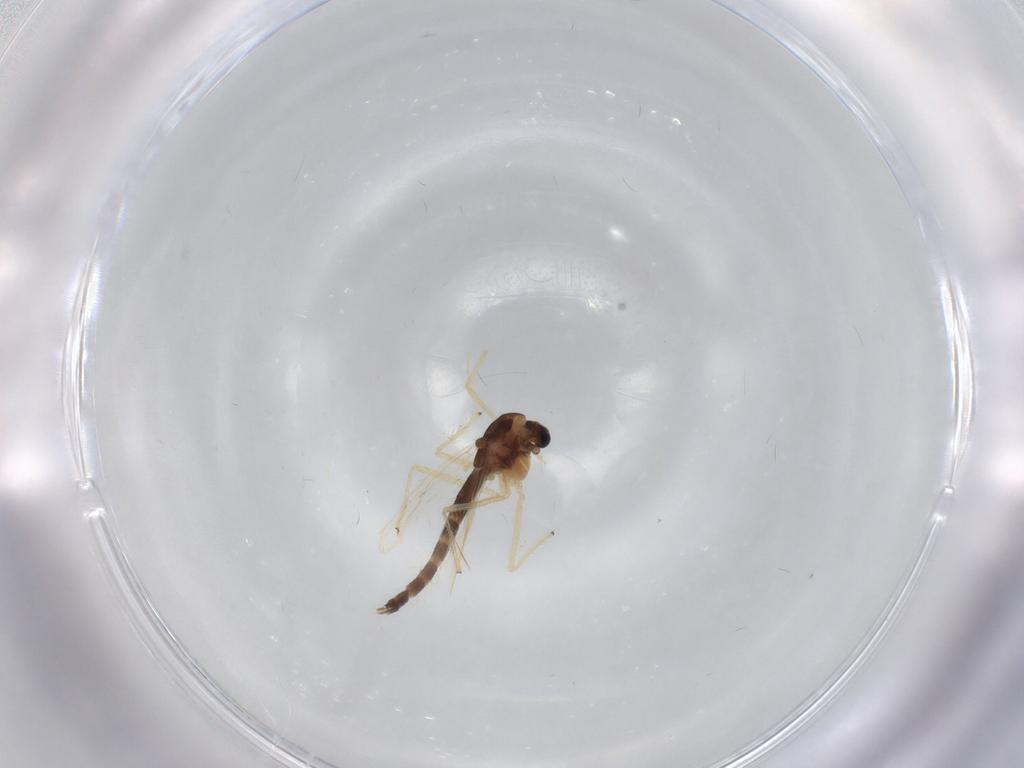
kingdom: Animalia
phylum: Arthropoda
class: Insecta
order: Diptera
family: Chironomidae
